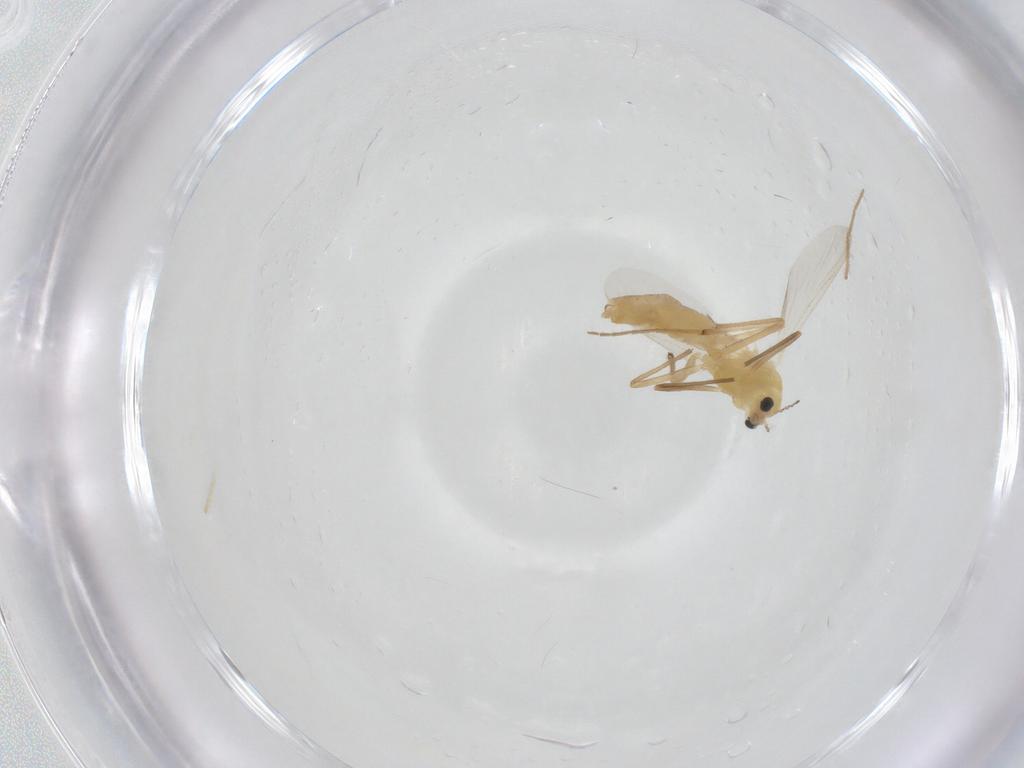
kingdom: Animalia
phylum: Arthropoda
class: Insecta
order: Diptera
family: Chironomidae
